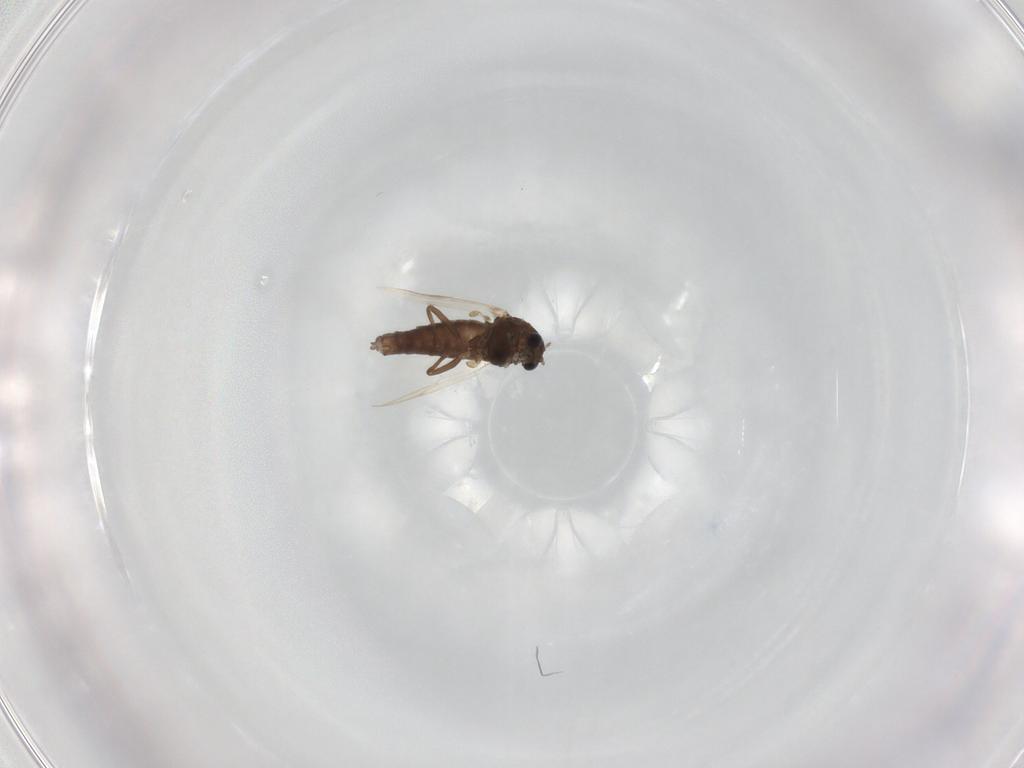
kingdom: Animalia
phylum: Arthropoda
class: Insecta
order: Diptera
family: Chironomidae
